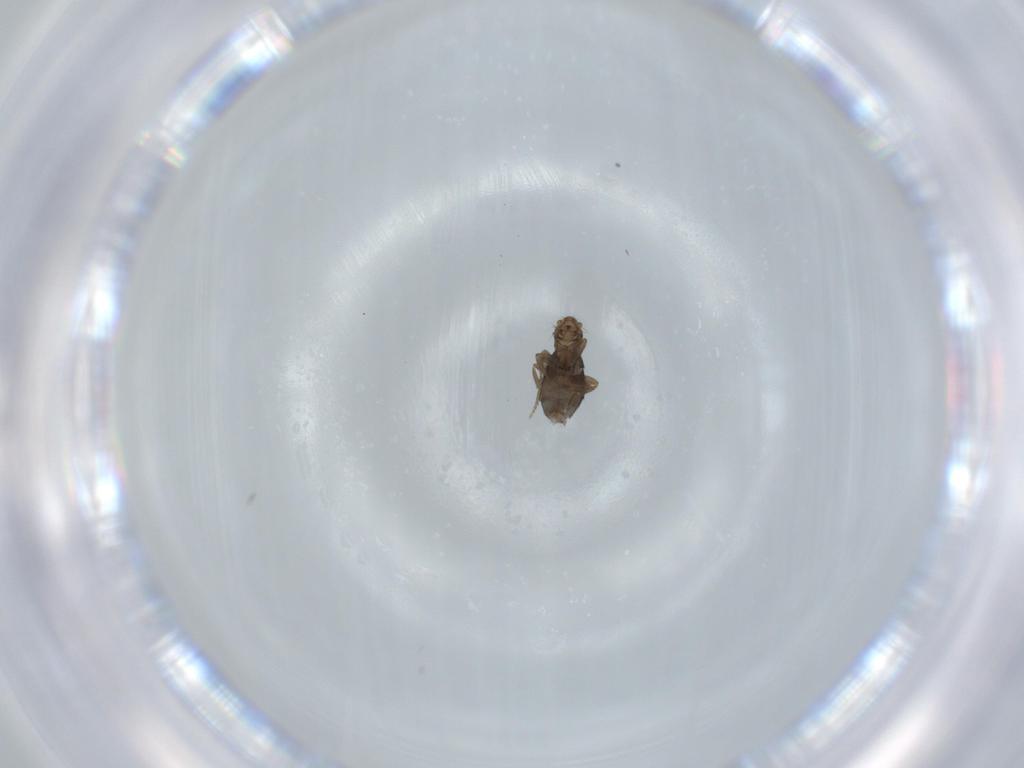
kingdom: Animalia
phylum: Arthropoda
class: Insecta
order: Diptera
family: Phoridae
